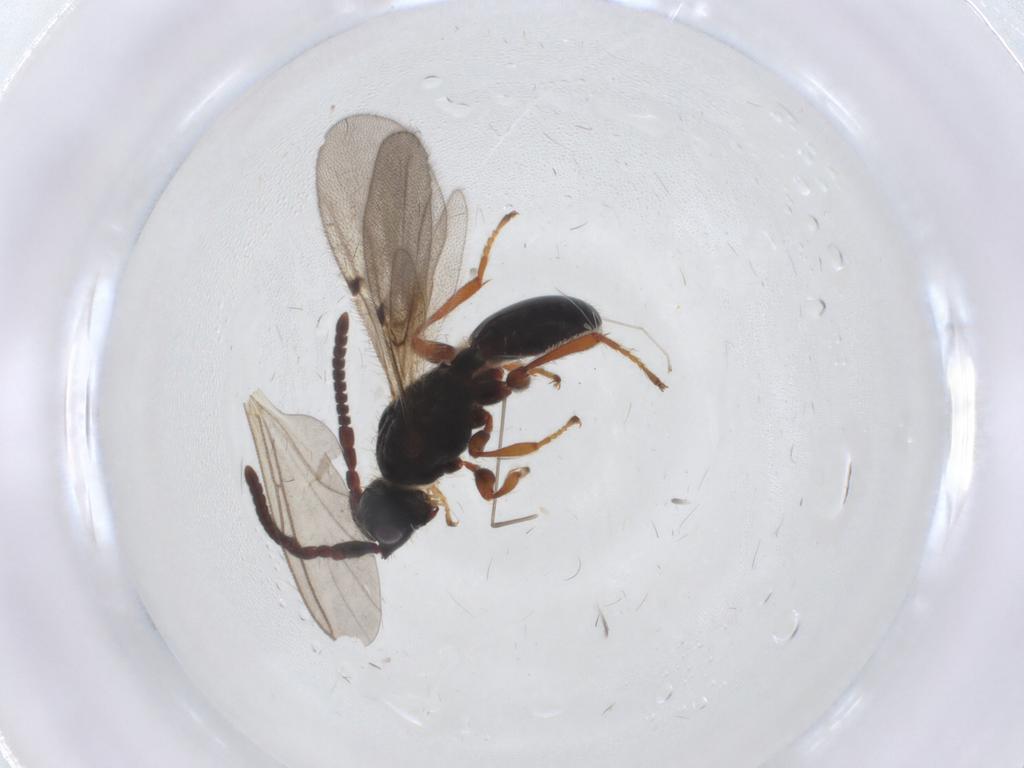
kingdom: Animalia
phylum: Arthropoda
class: Insecta
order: Hymenoptera
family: Diapriidae
